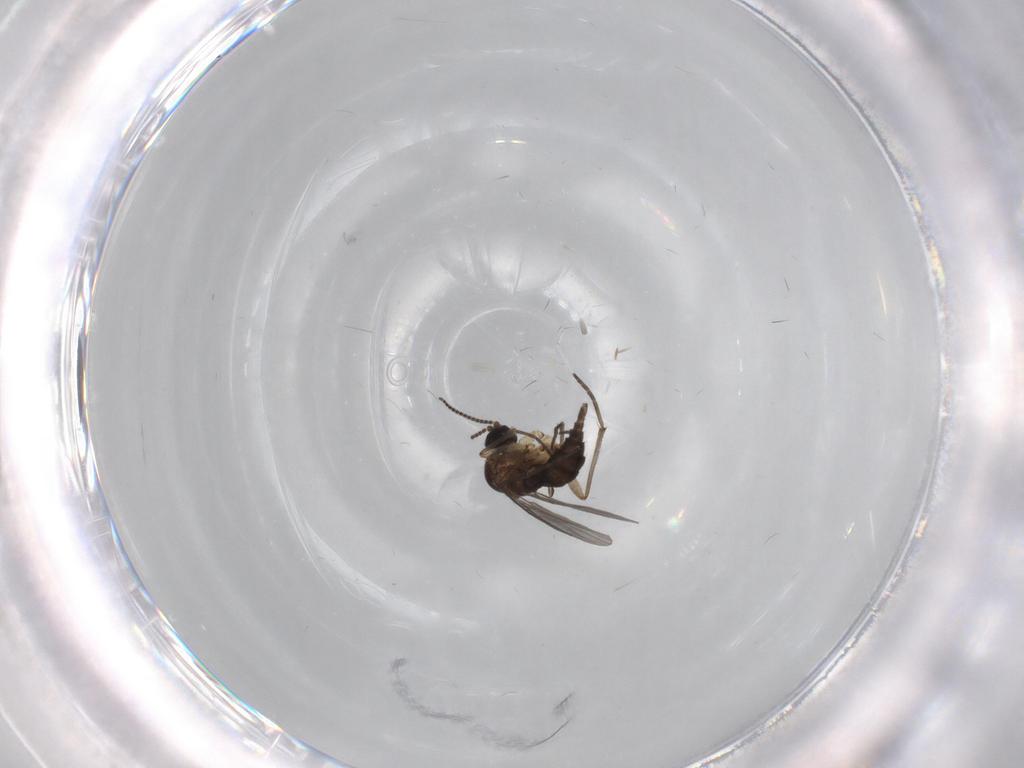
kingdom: Animalia
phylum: Arthropoda
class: Insecta
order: Diptera
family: Sciaridae
